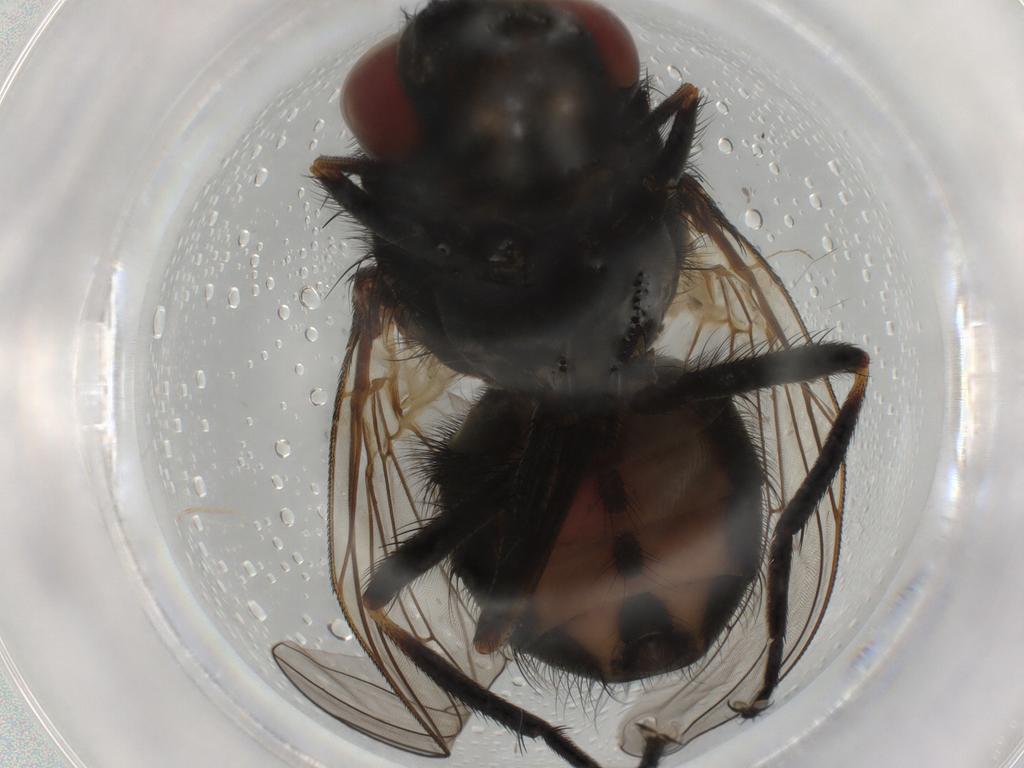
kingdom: Animalia
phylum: Arthropoda
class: Insecta
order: Diptera
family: Muscidae
